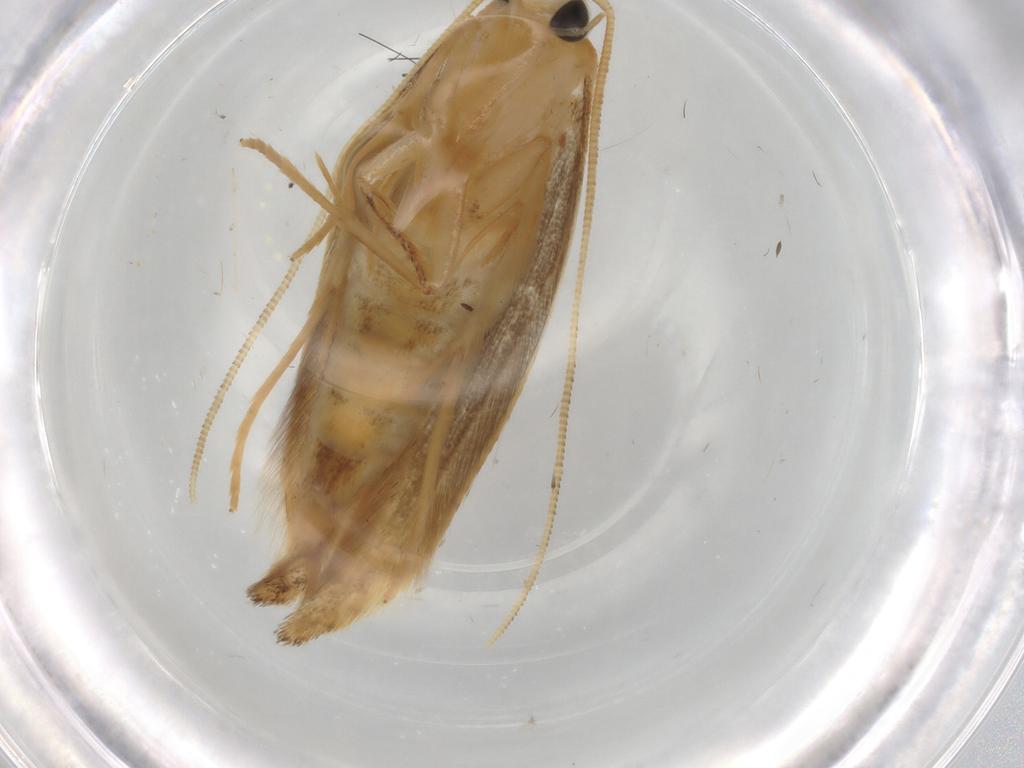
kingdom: Animalia
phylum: Arthropoda
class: Insecta
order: Lepidoptera
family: Tineidae
